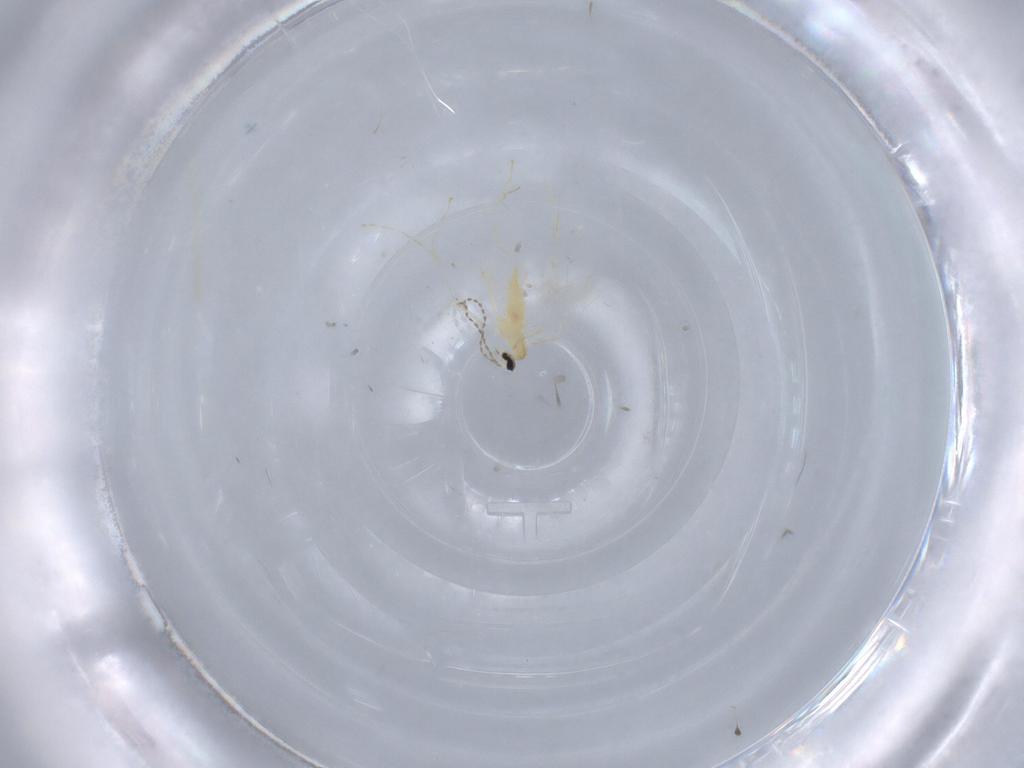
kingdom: Animalia
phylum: Arthropoda
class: Insecta
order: Diptera
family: Cecidomyiidae
